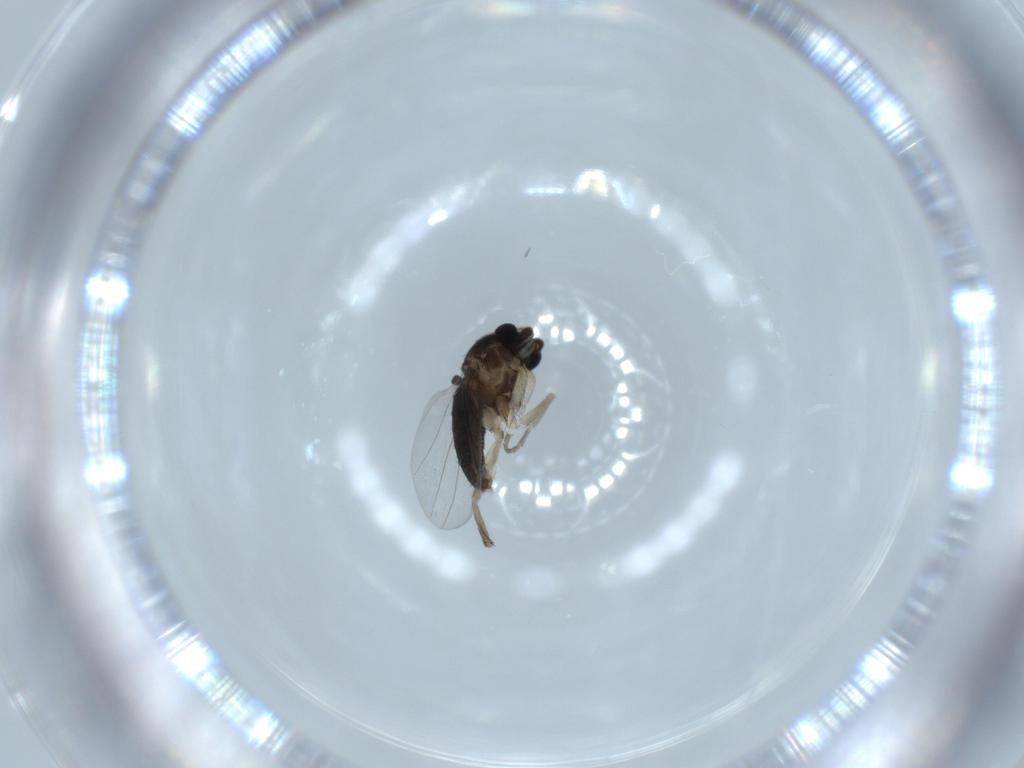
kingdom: Animalia
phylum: Arthropoda
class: Insecta
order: Diptera
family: Phoridae
